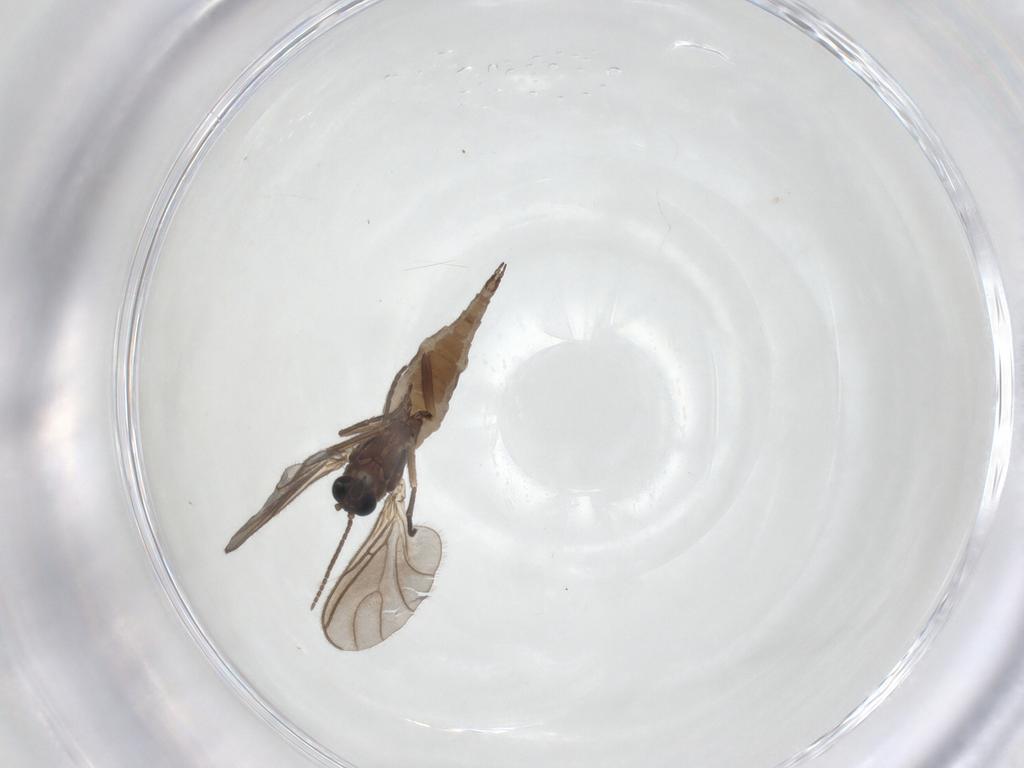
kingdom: Animalia
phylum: Arthropoda
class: Insecta
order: Diptera
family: Sciaridae
